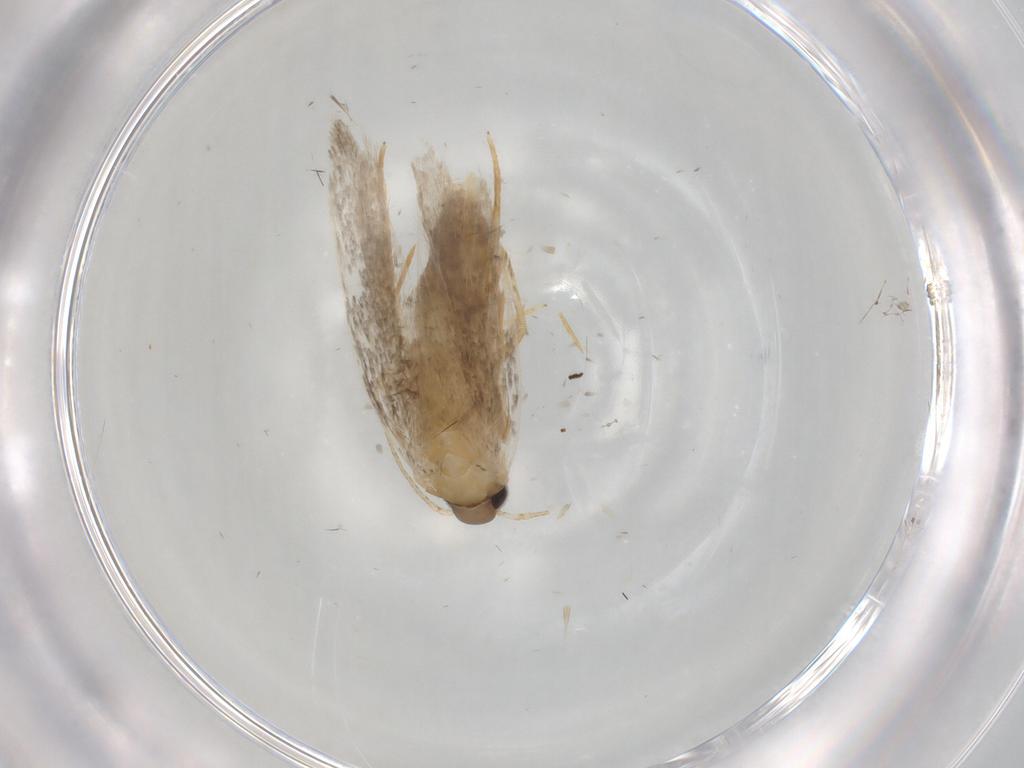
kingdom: Animalia
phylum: Arthropoda
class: Insecta
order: Lepidoptera
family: Autostichidae
